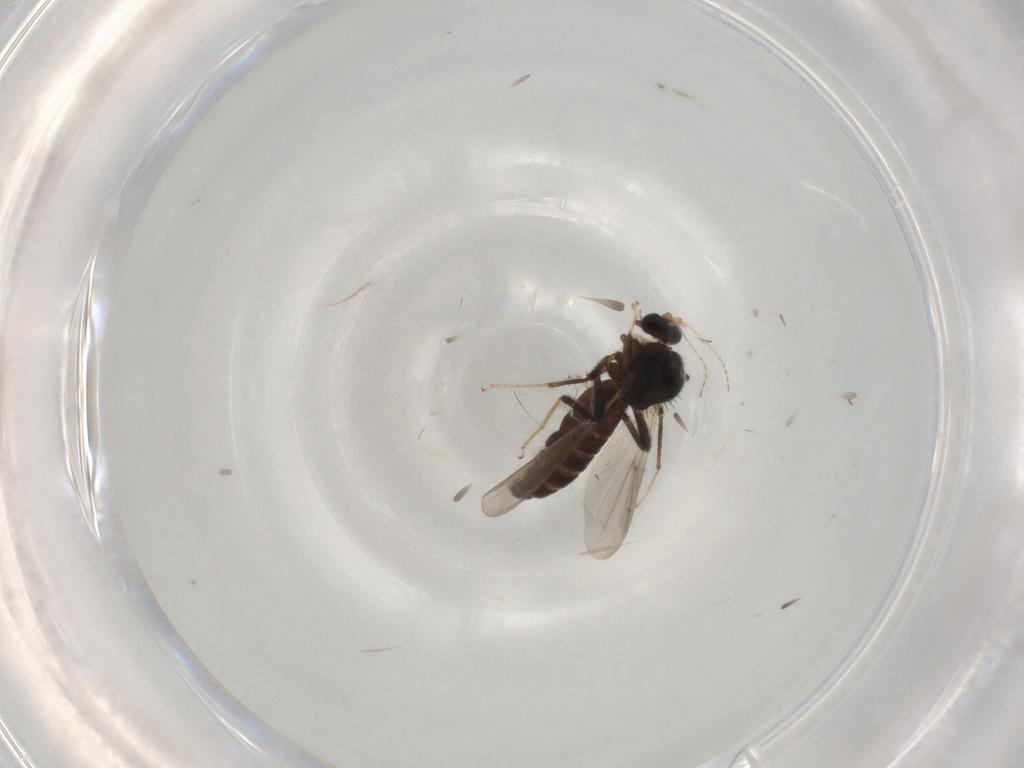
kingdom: Animalia
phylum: Arthropoda
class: Insecta
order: Diptera
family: Ceratopogonidae
